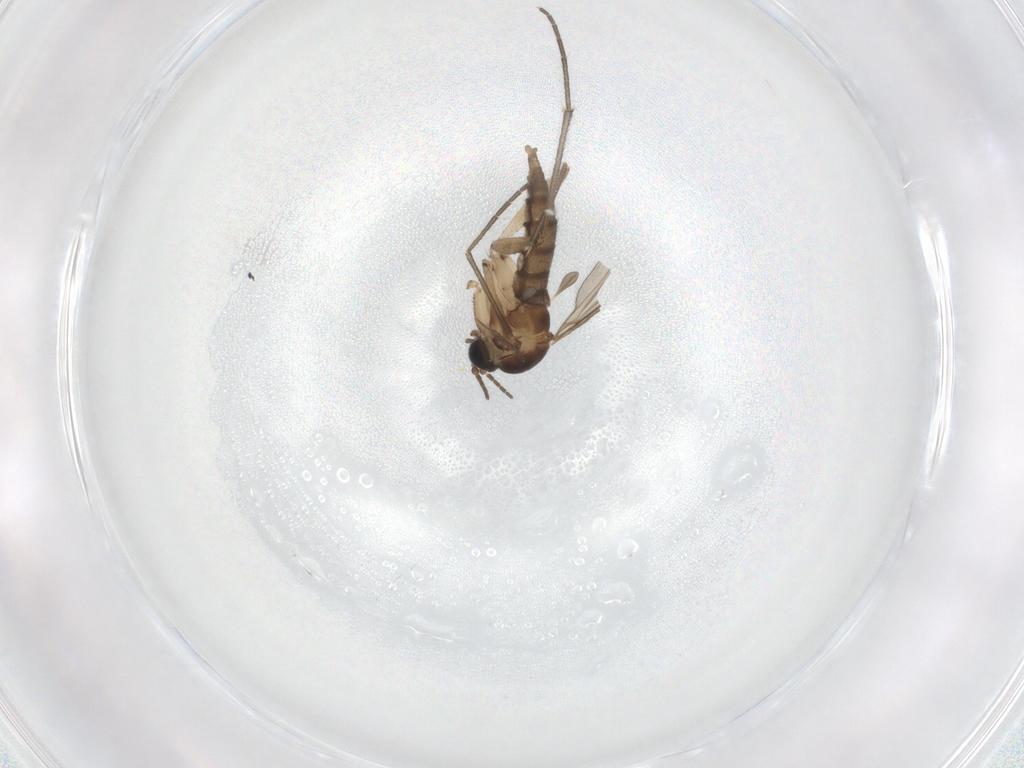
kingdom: Animalia
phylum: Arthropoda
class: Insecta
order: Diptera
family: Sciaridae
